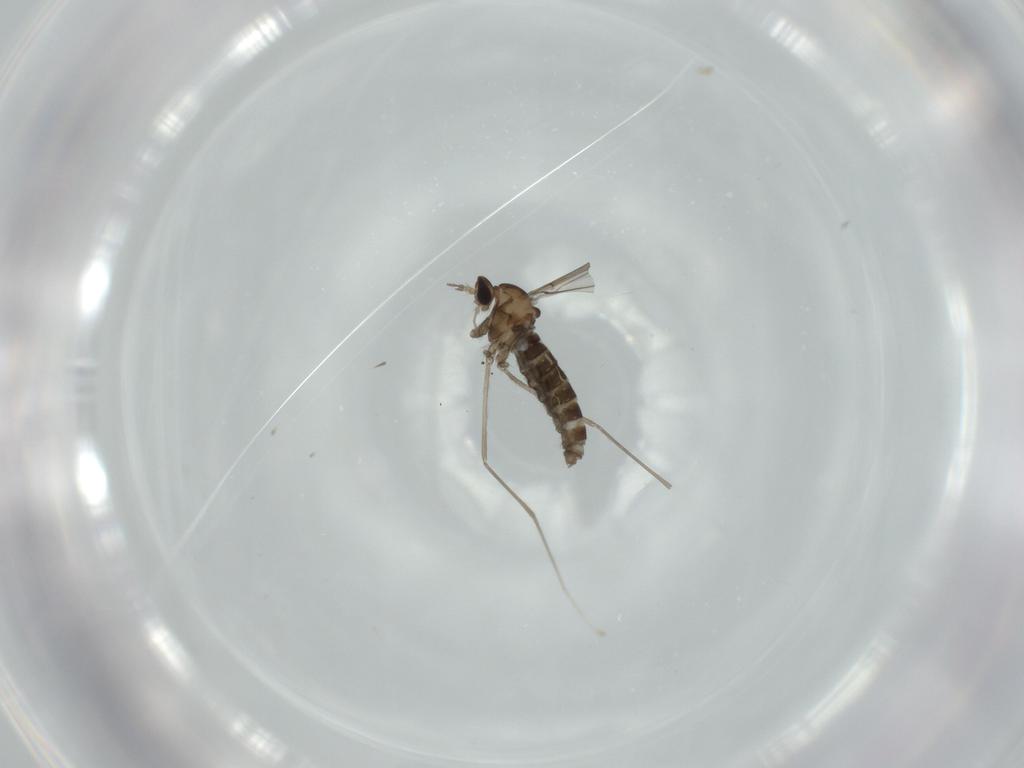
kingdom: Animalia
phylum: Arthropoda
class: Insecta
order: Diptera
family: Cecidomyiidae
